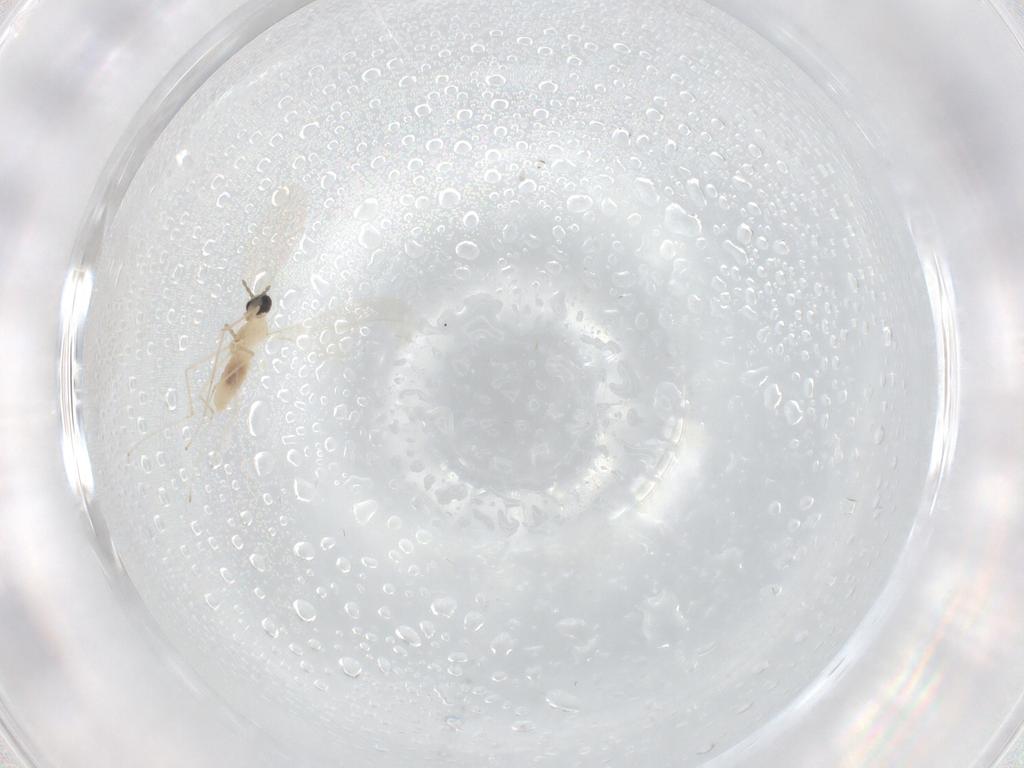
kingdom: Animalia
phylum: Arthropoda
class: Insecta
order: Diptera
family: Cecidomyiidae
